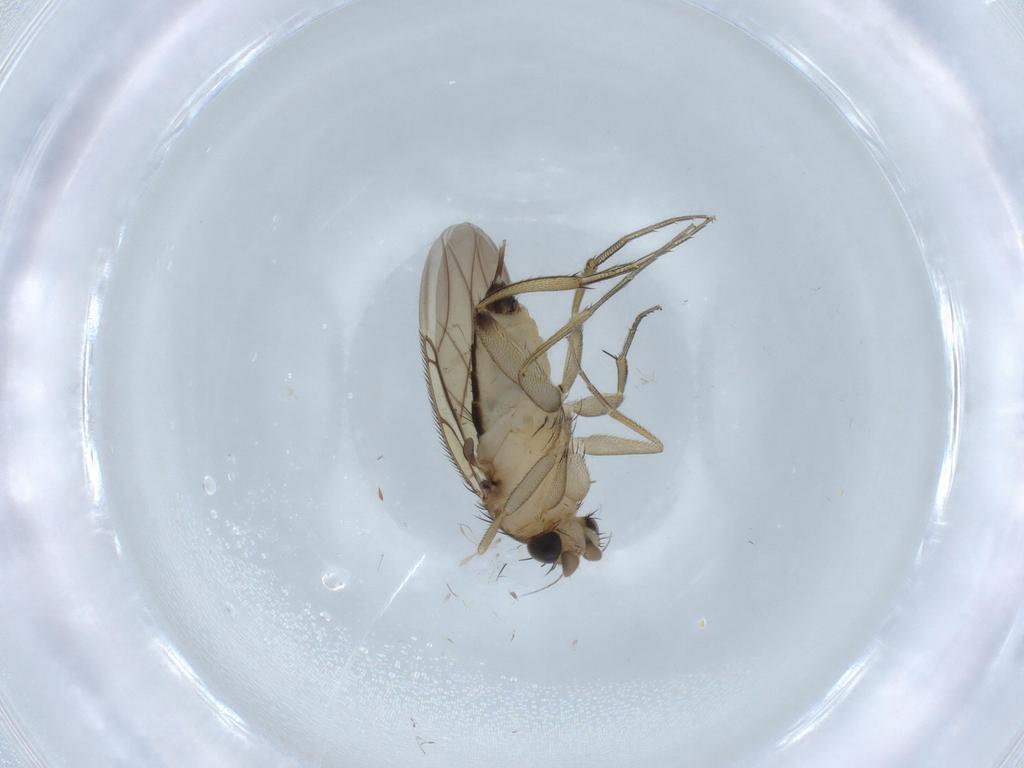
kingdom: Animalia
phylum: Arthropoda
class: Insecta
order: Diptera
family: Phoridae
